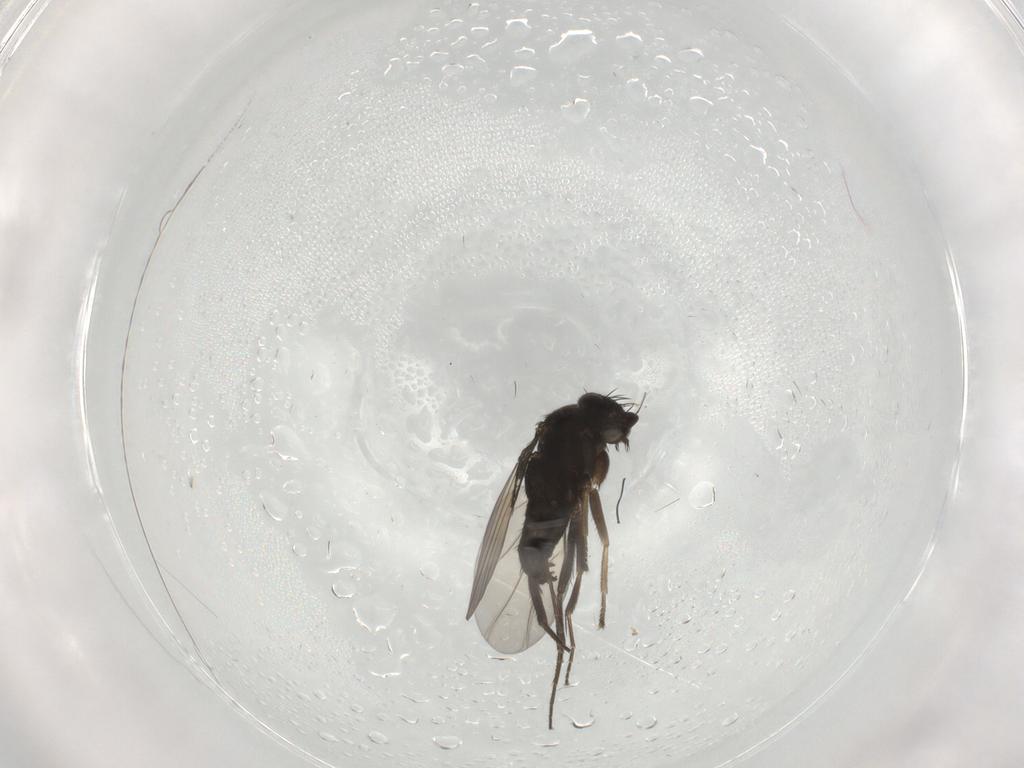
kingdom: Animalia
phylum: Arthropoda
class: Insecta
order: Diptera
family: Phoridae
